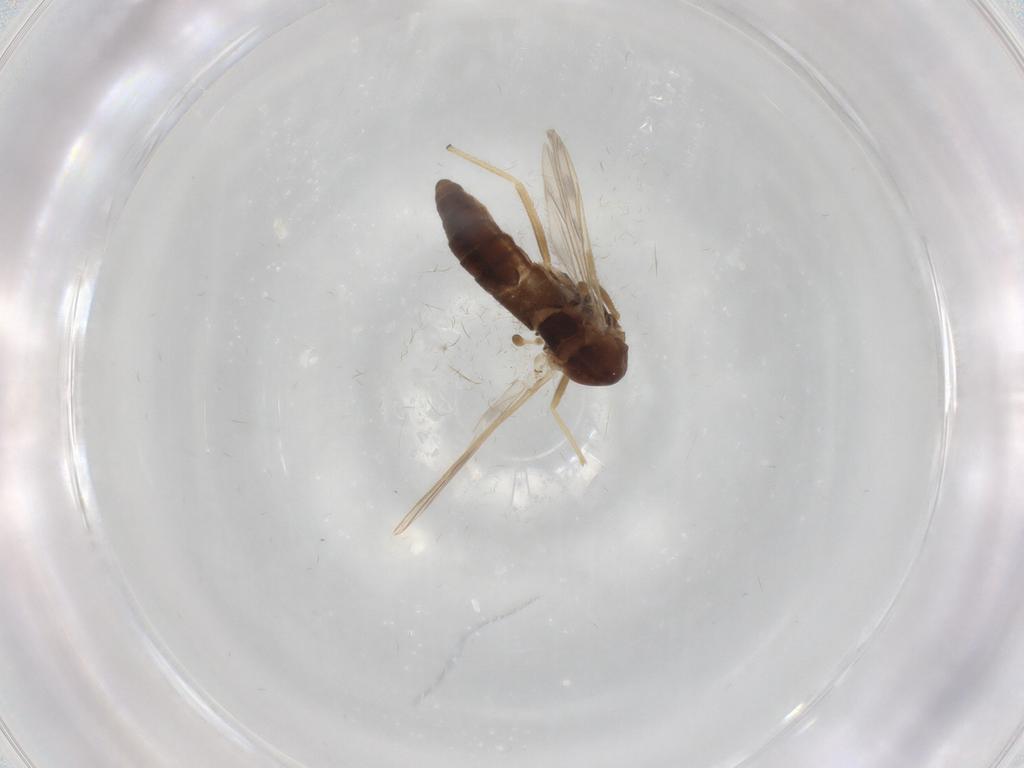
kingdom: Animalia
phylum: Arthropoda
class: Insecta
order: Diptera
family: Chironomidae
